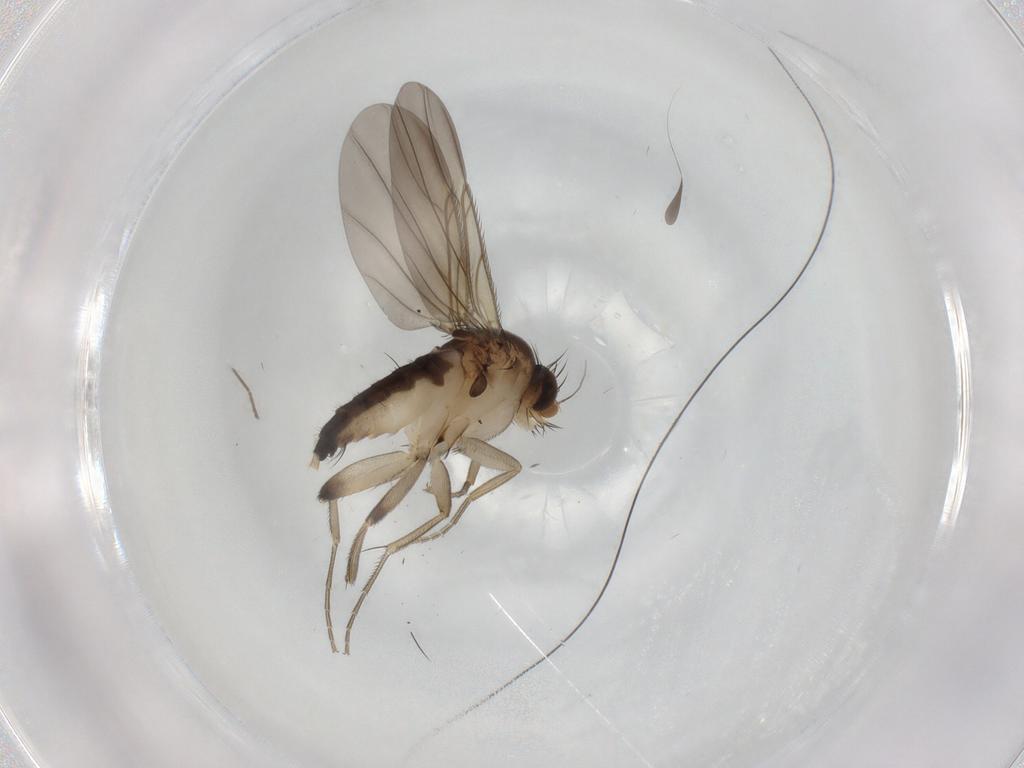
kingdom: Animalia
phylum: Arthropoda
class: Insecta
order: Diptera
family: Phoridae
